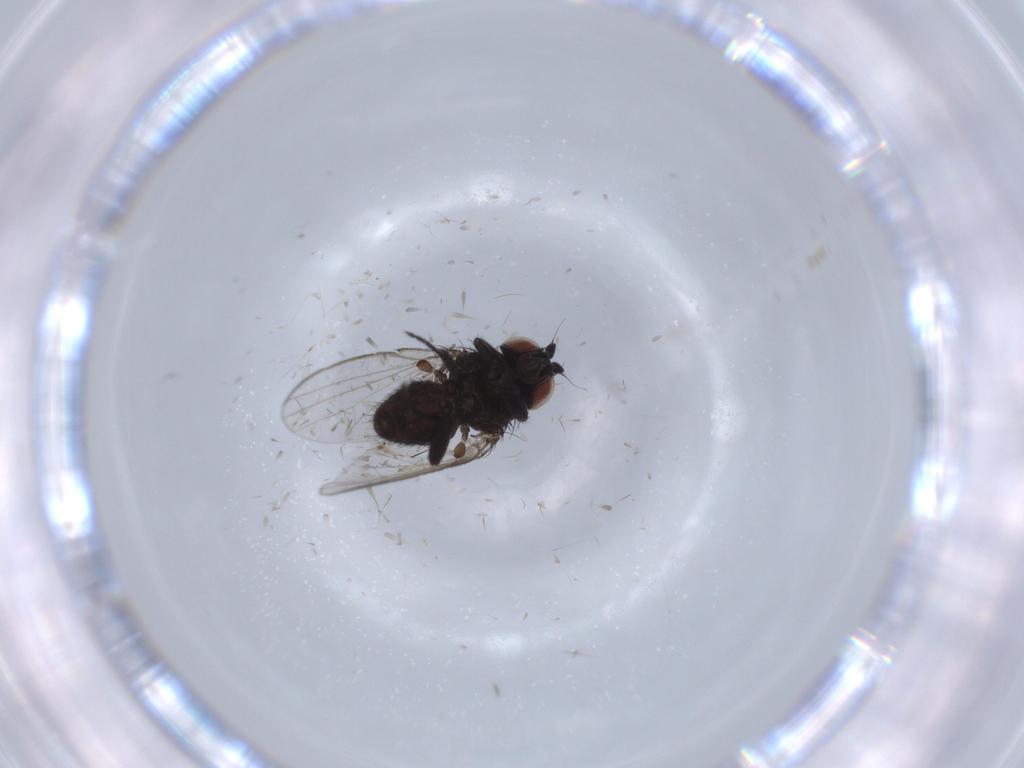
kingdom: Animalia
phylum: Arthropoda
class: Insecta
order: Diptera
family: Milichiidae
